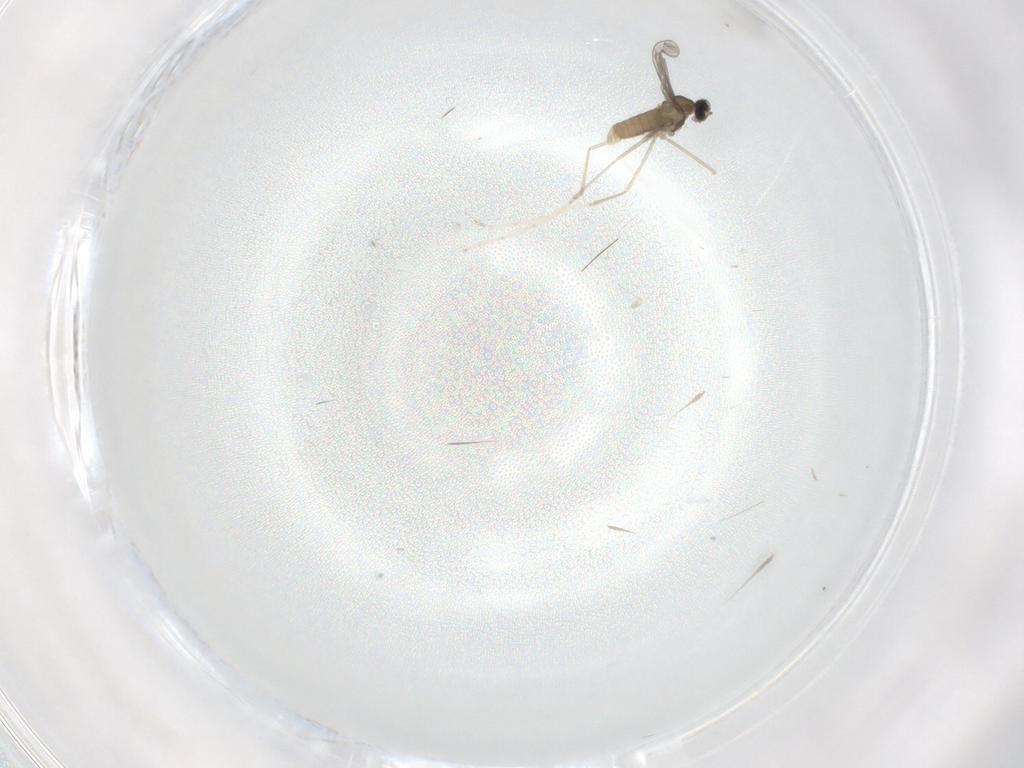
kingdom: Animalia
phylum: Arthropoda
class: Insecta
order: Diptera
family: Cecidomyiidae
